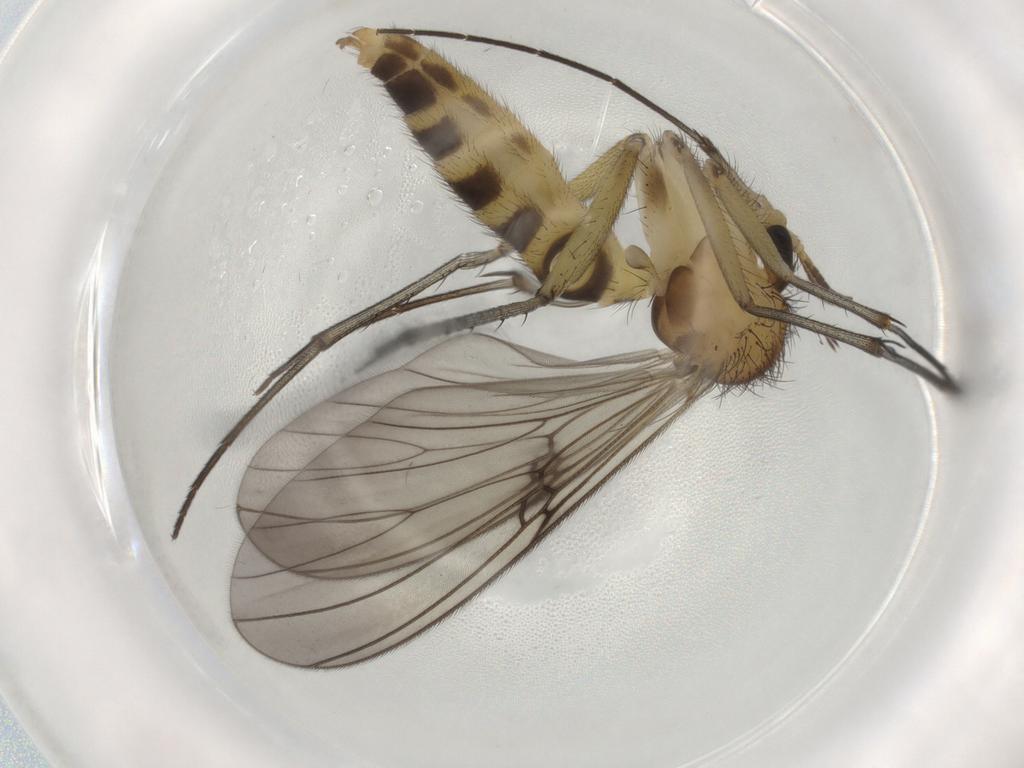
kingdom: Animalia
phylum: Arthropoda
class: Insecta
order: Diptera
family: Mycetophilidae
